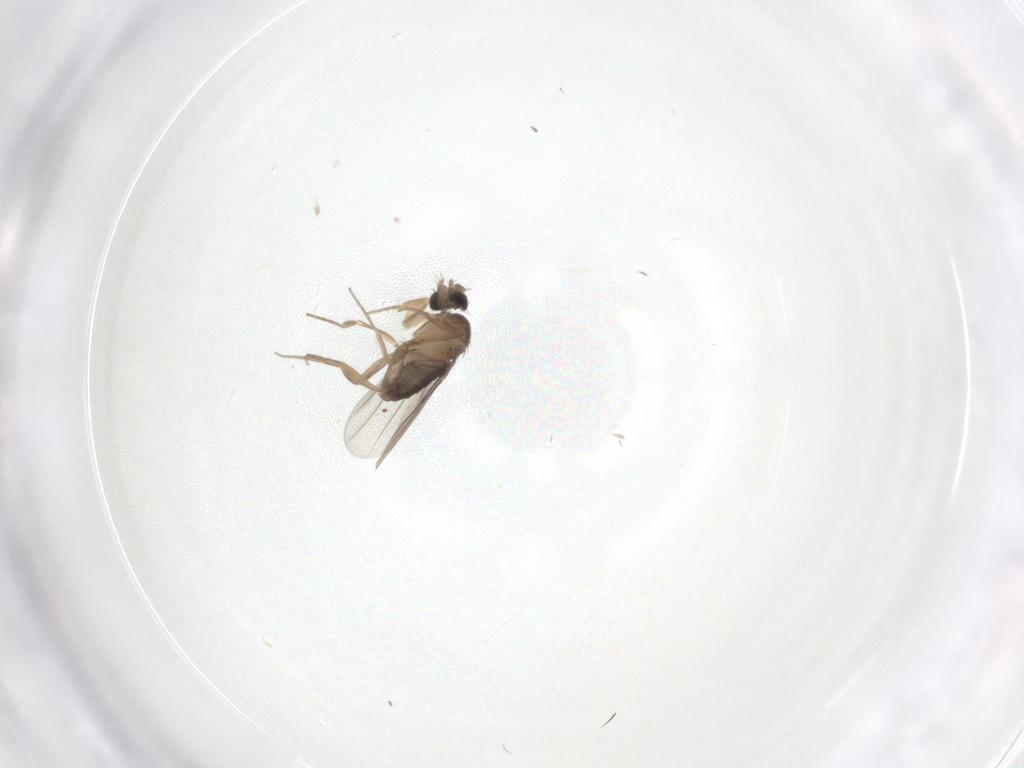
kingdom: Animalia
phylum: Arthropoda
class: Insecta
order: Diptera
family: Phoridae
